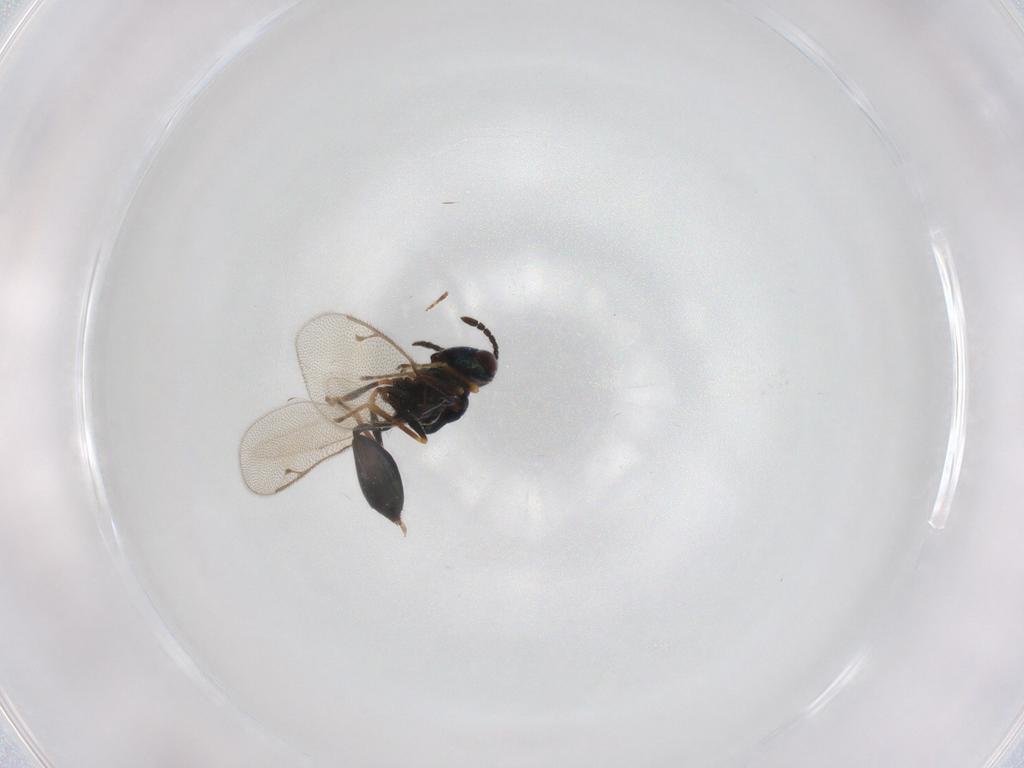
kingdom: Animalia
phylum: Arthropoda
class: Insecta
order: Hymenoptera
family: Pteromalidae
